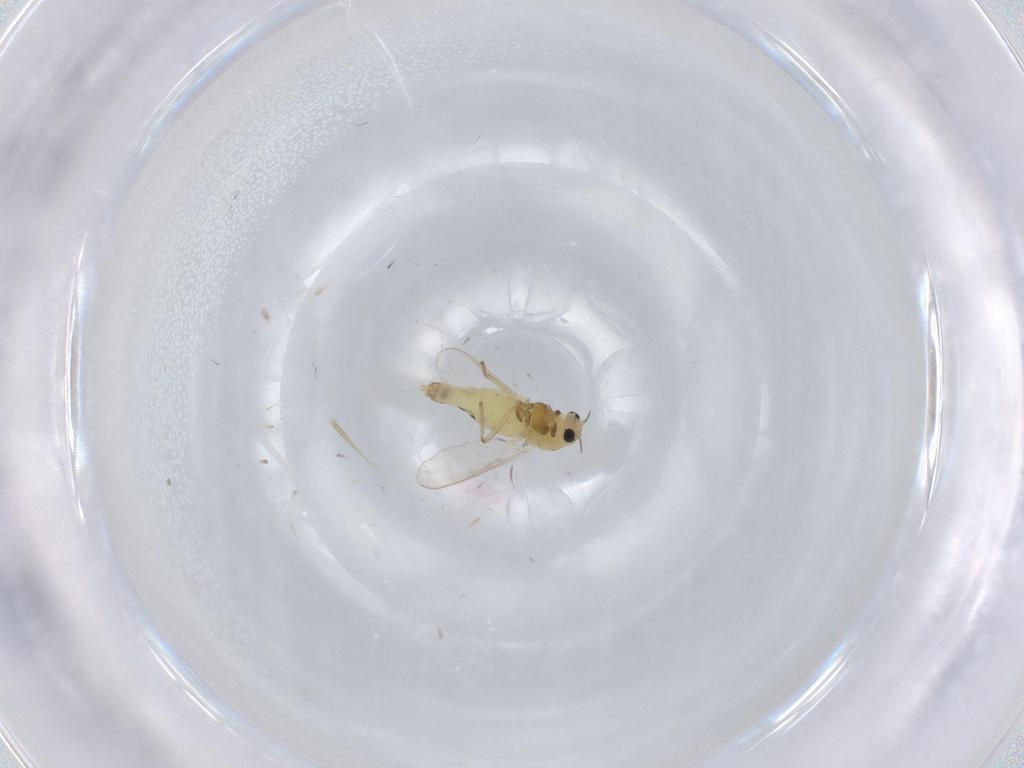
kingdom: Animalia
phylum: Arthropoda
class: Insecta
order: Diptera
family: Chironomidae
